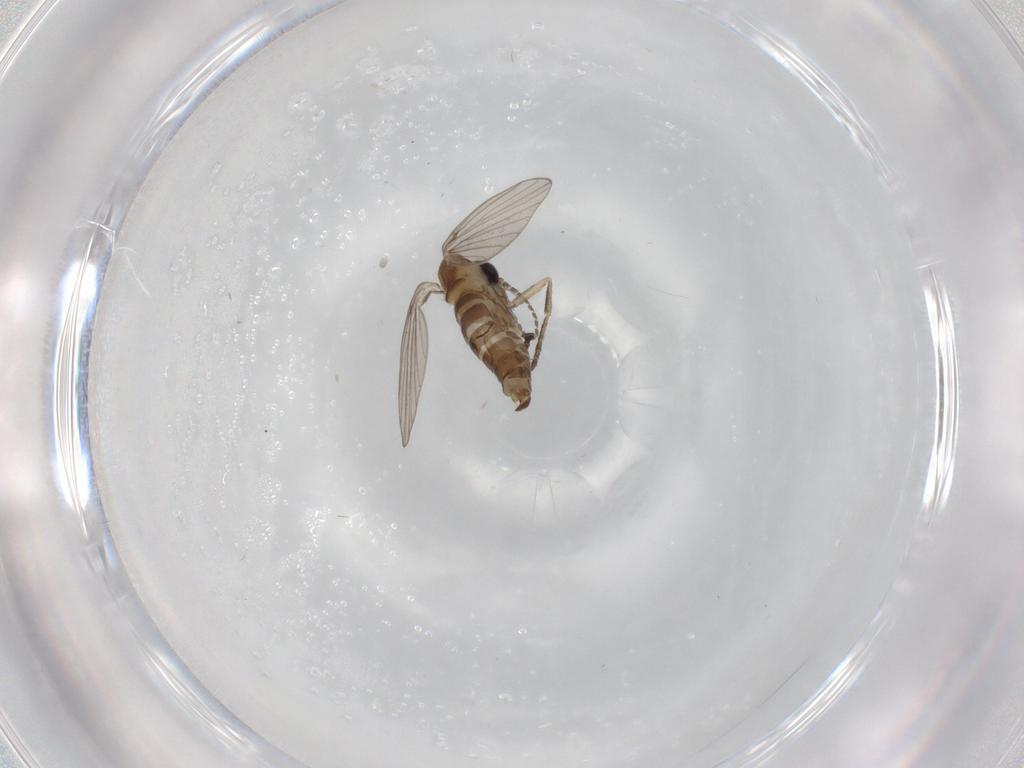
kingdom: Animalia
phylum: Arthropoda
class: Insecta
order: Diptera
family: Psychodidae
